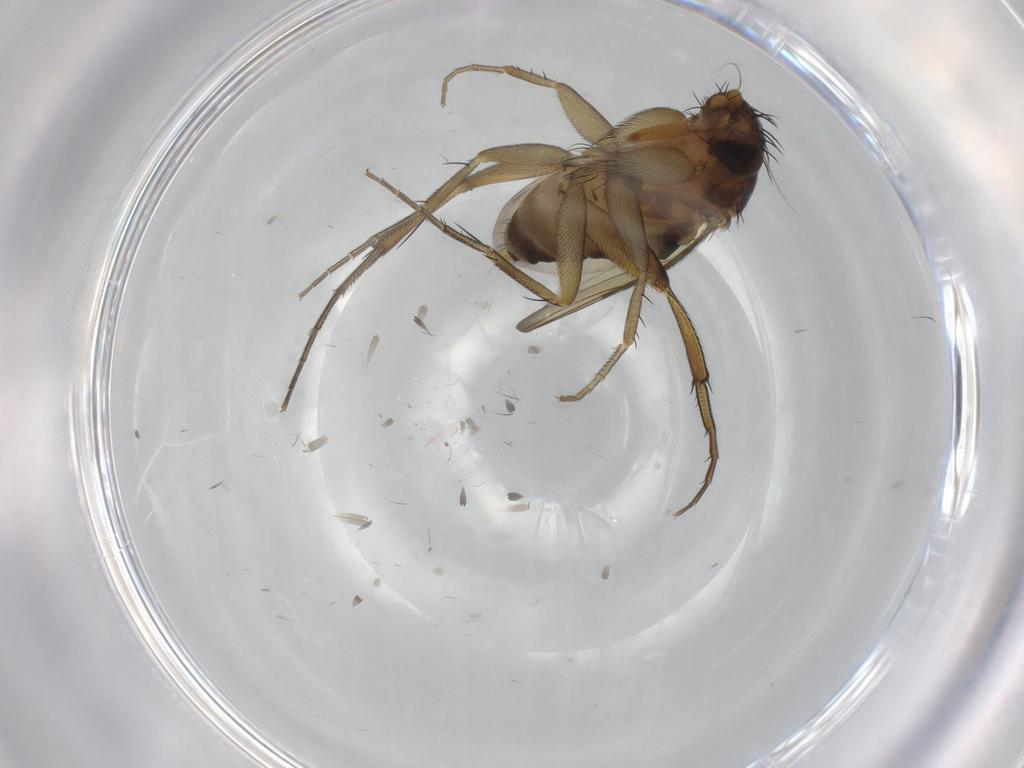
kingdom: Animalia
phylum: Arthropoda
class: Insecta
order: Diptera
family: Phoridae
